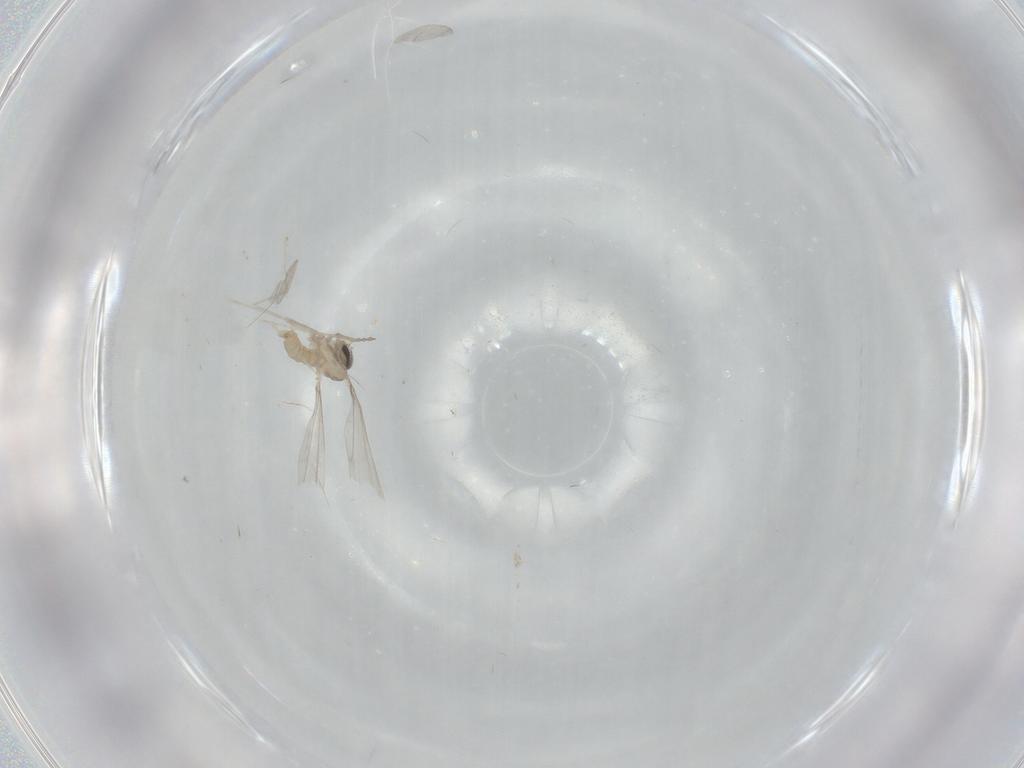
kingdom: Animalia
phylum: Arthropoda
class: Insecta
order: Diptera
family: Cecidomyiidae
